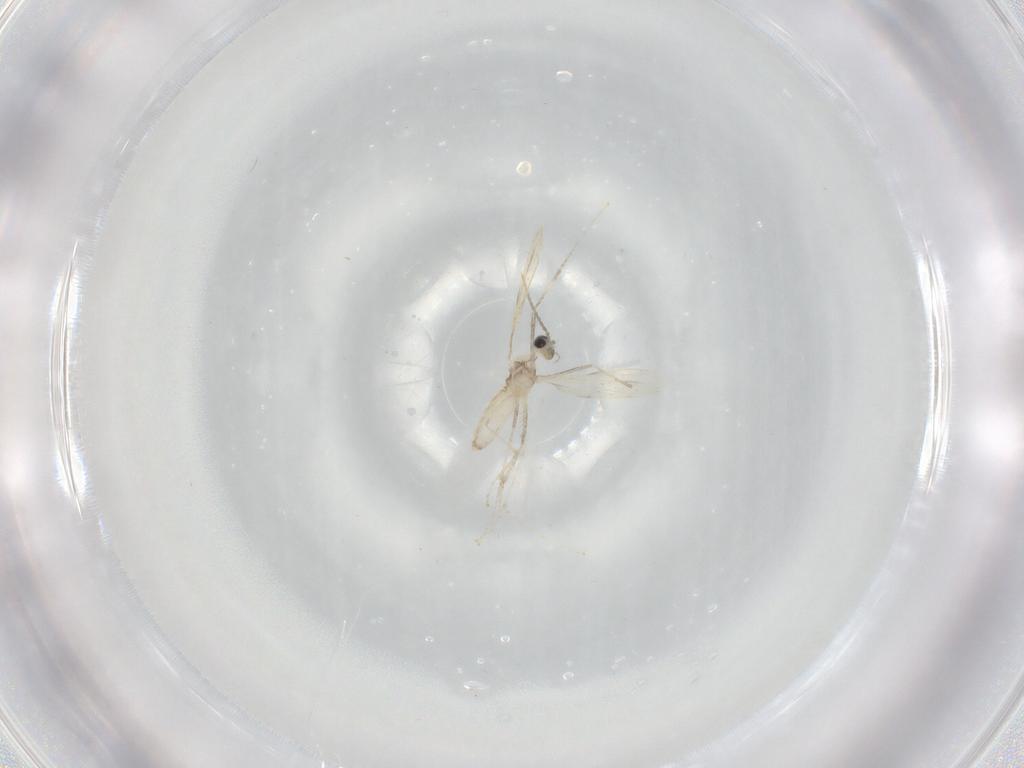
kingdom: Animalia
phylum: Arthropoda
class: Insecta
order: Diptera
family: Cecidomyiidae
